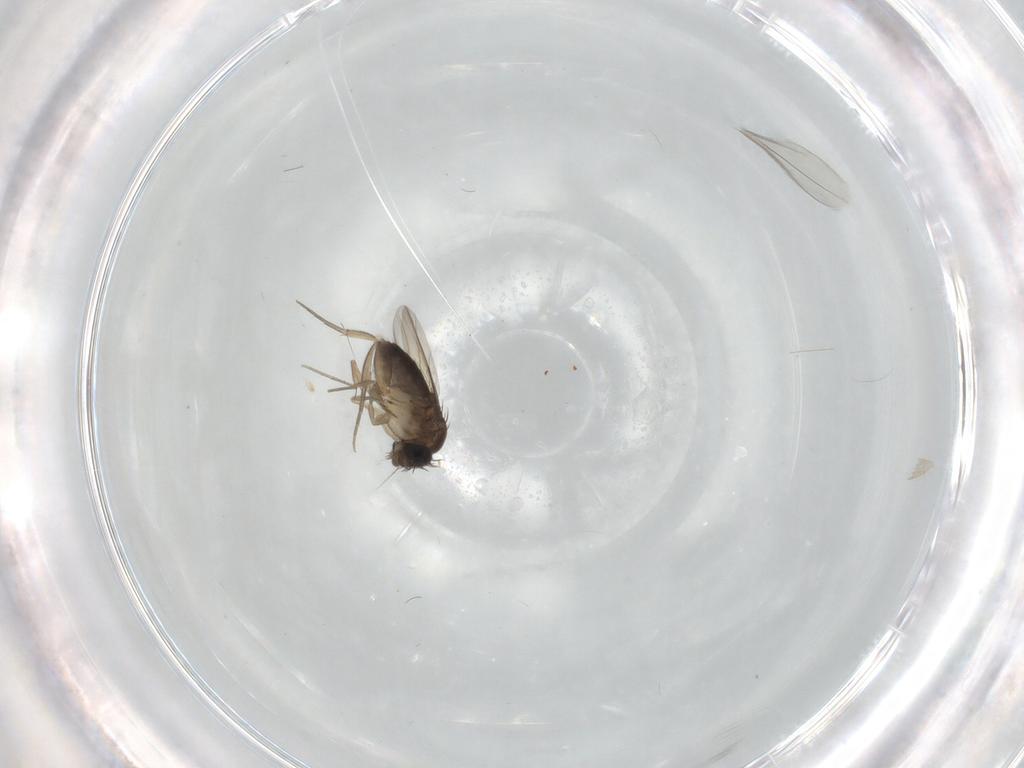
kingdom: Animalia
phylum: Arthropoda
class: Insecta
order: Diptera
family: Phoridae
